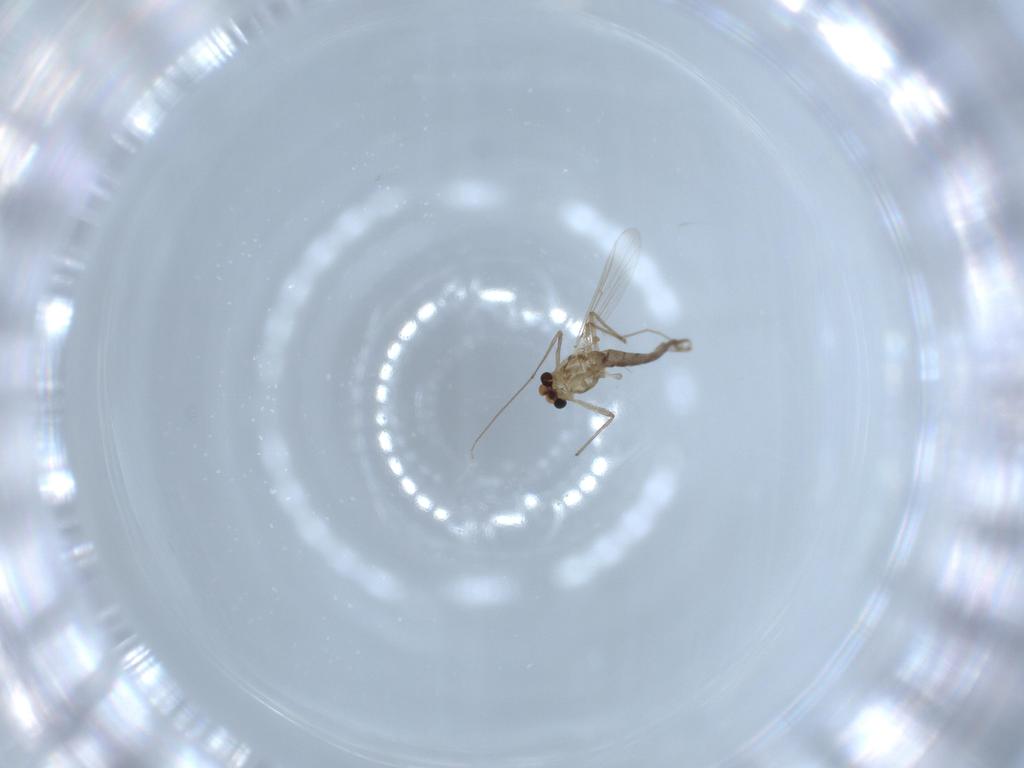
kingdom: Animalia
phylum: Arthropoda
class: Insecta
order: Diptera
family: Chironomidae
